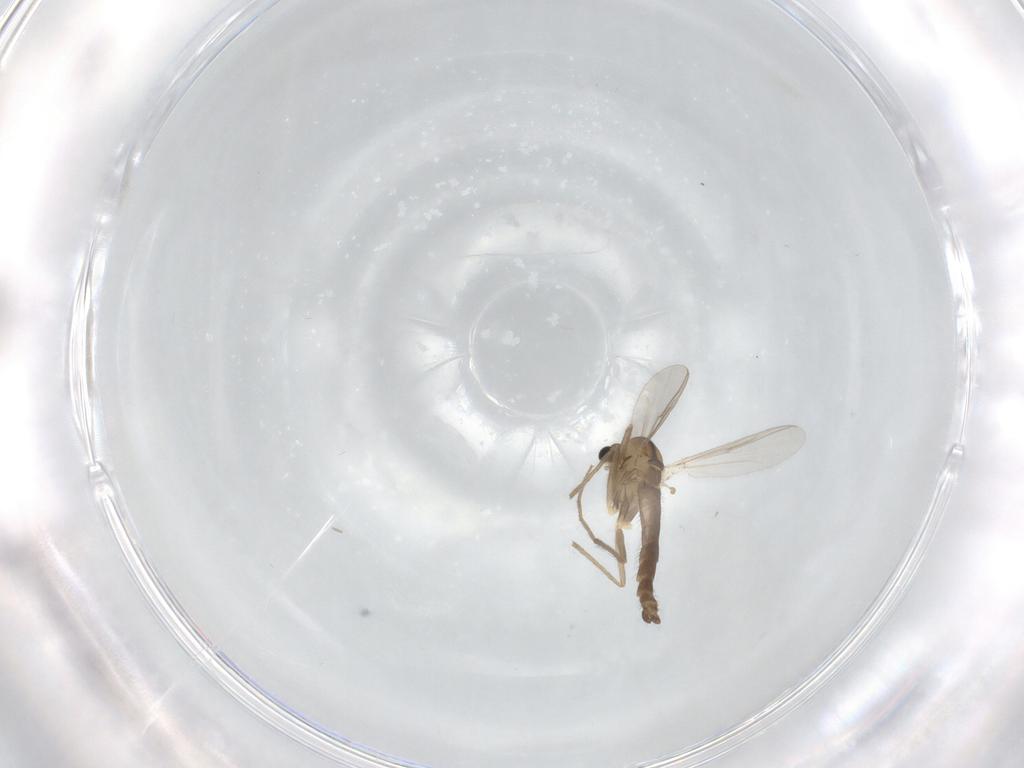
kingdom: Animalia
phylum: Arthropoda
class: Insecta
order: Diptera
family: Chironomidae
